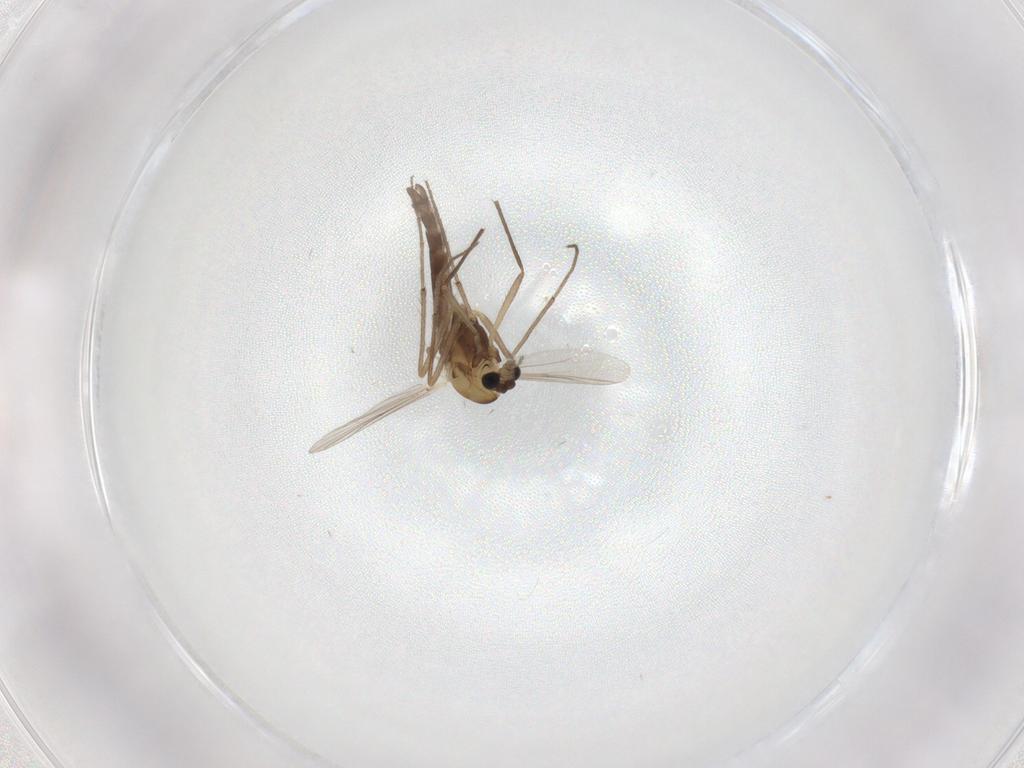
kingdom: Animalia
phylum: Arthropoda
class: Insecta
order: Diptera
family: Chironomidae
